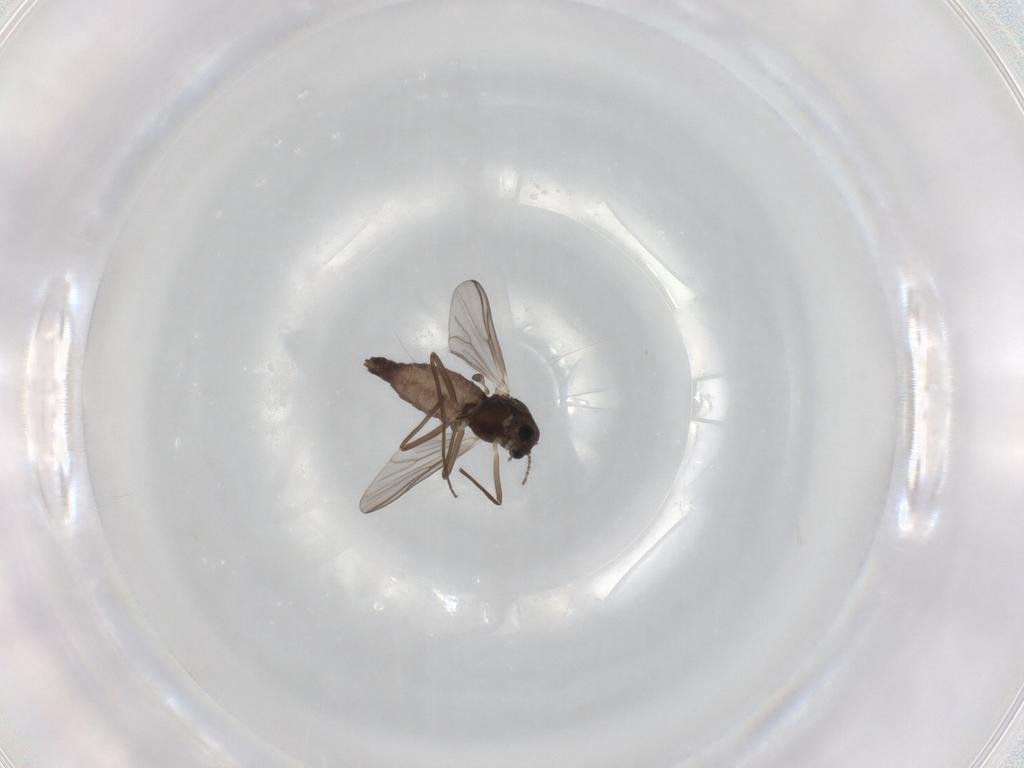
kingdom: Animalia
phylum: Arthropoda
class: Insecta
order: Diptera
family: Chironomidae
